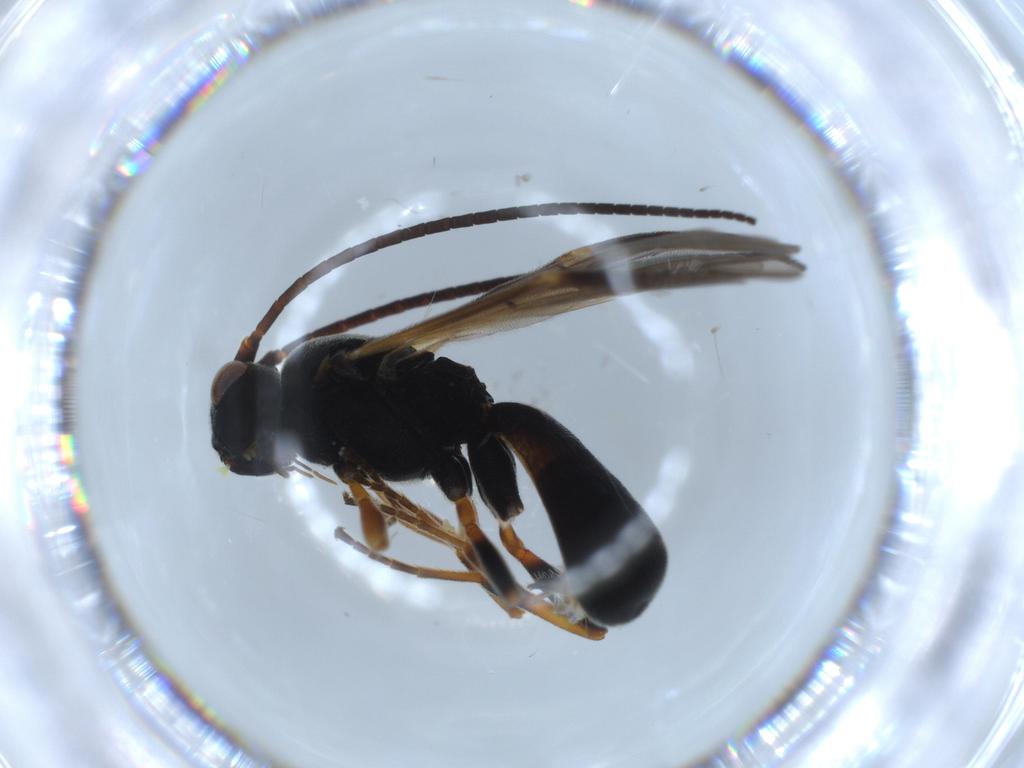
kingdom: Animalia
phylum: Arthropoda
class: Insecta
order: Hymenoptera
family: Braconidae
